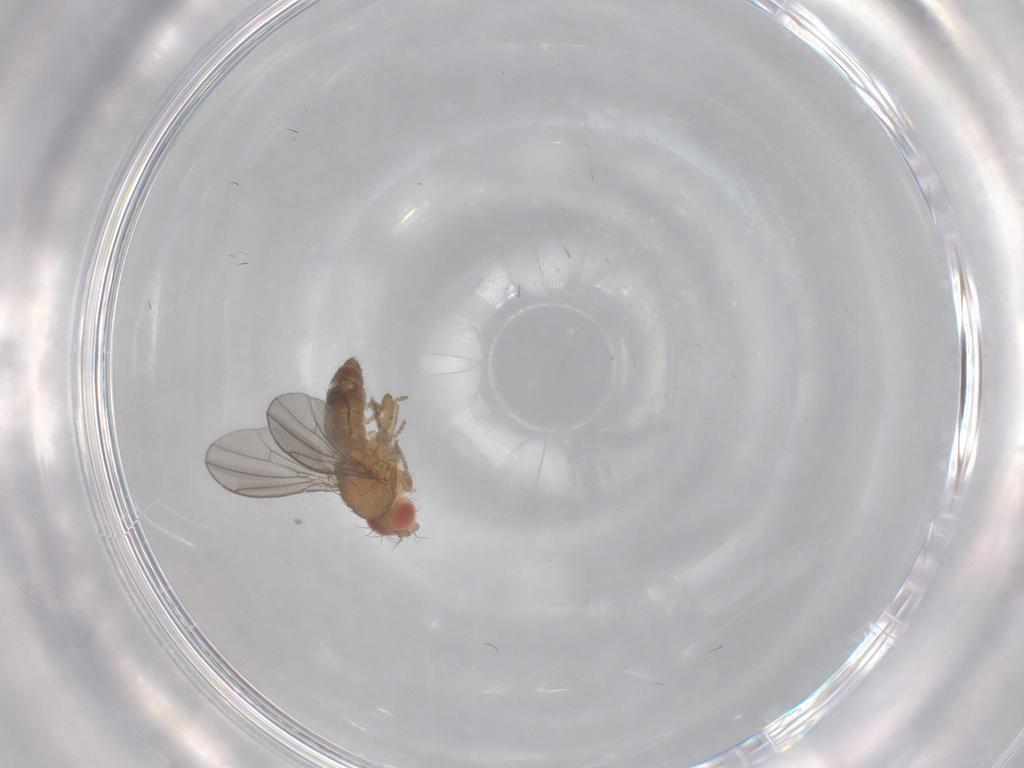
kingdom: Animalia
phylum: Arthropoda
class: Insecta
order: Diptera
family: Drosophilidae
